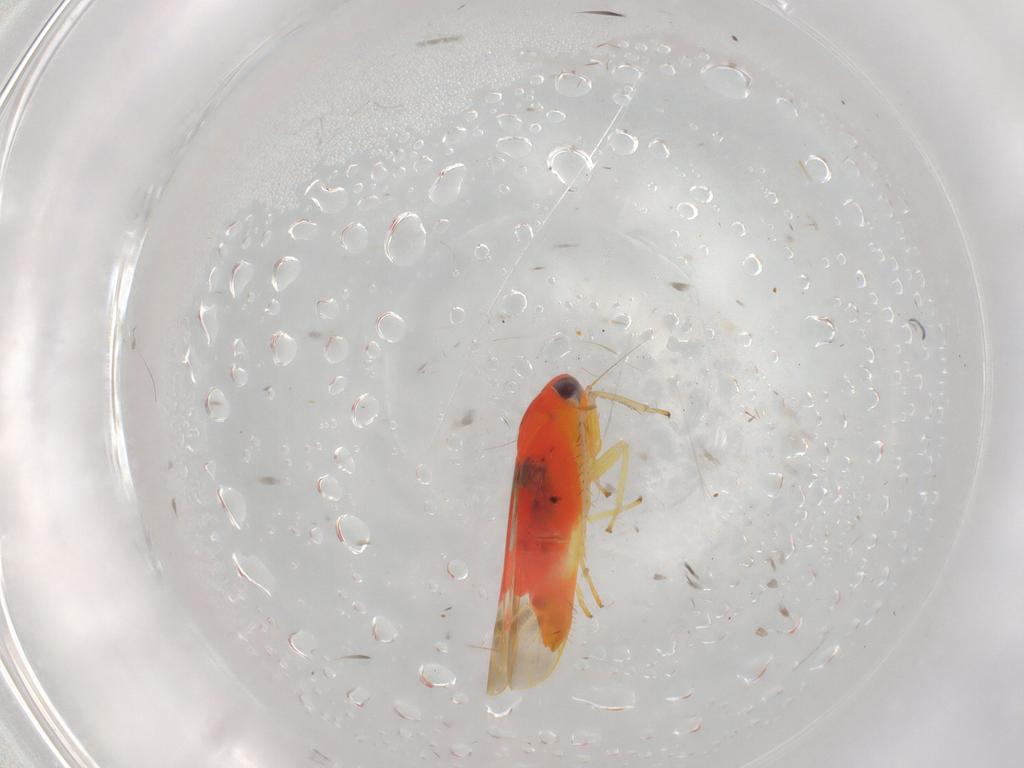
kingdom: Animalia
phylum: Arthropoda
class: Insecta
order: Hemiptera
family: Cicadellidae
